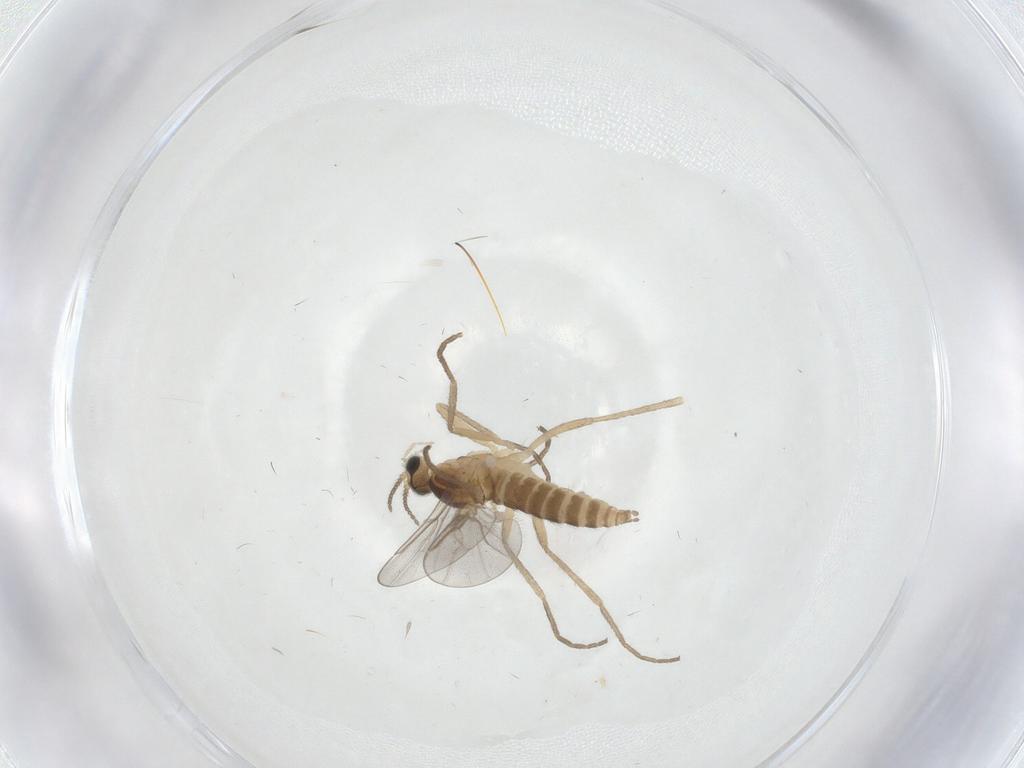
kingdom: Animalia
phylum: Arthropoda
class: Insecta
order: Diptera
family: Cecidomyiidae
